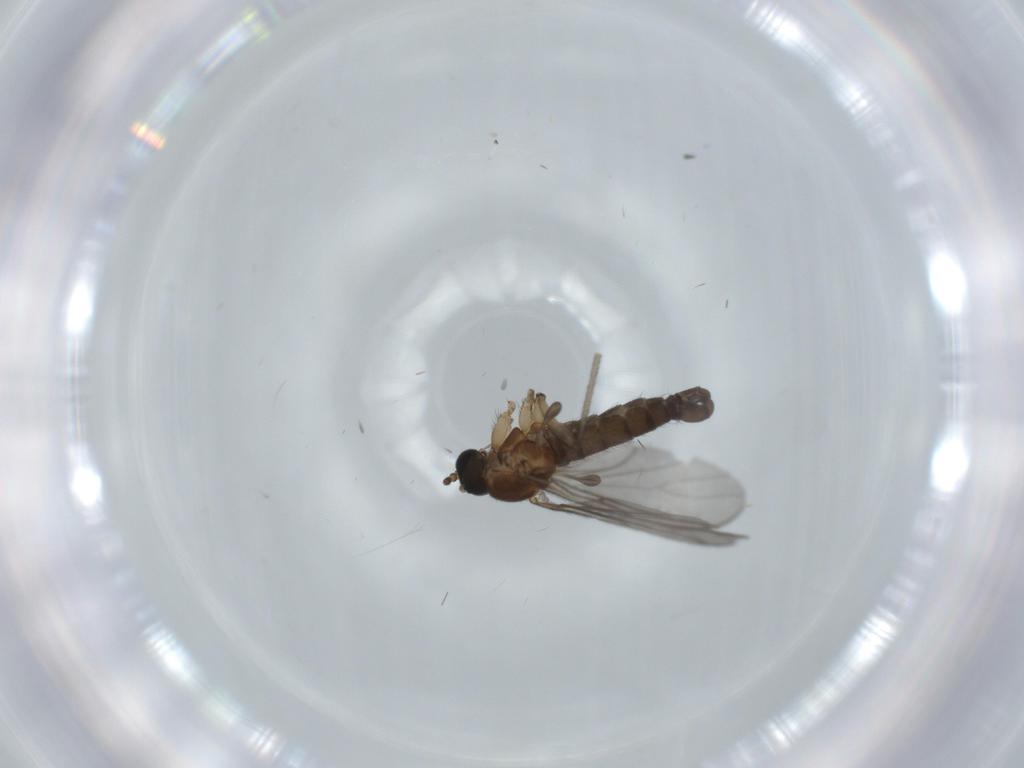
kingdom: Animalia
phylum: Arthropoda
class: Insecta
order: Diptera
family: Sciaridae
